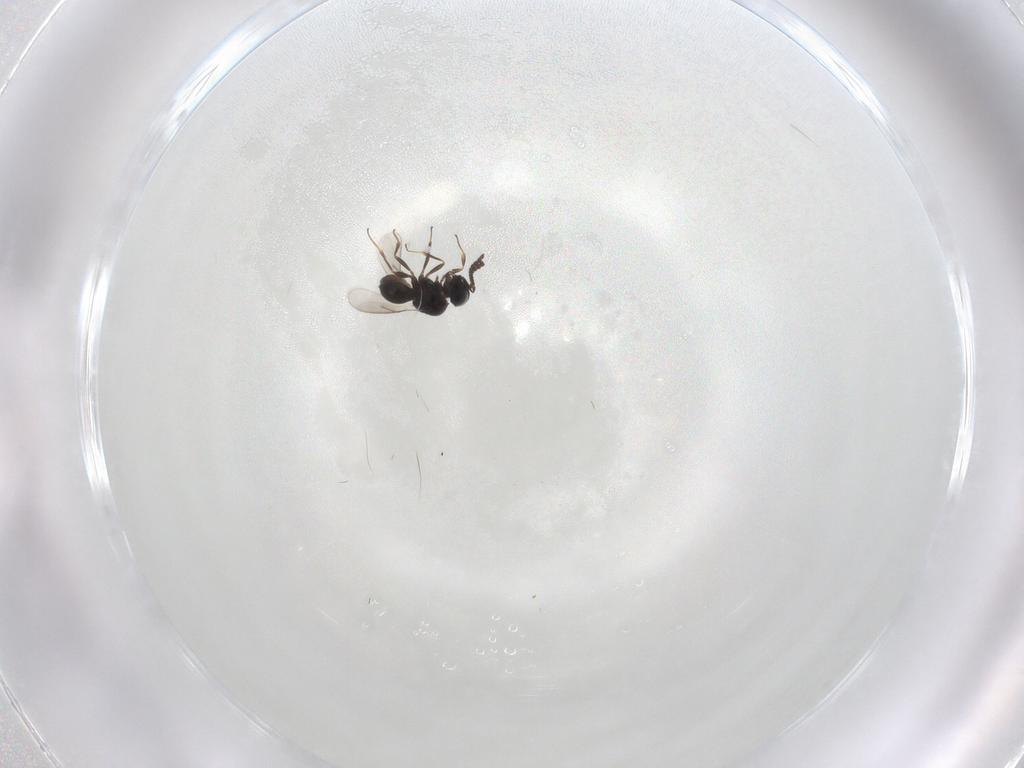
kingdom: Animalia
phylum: Arthropoda
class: Insecta
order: Hymenoptera
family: Scelionidae
